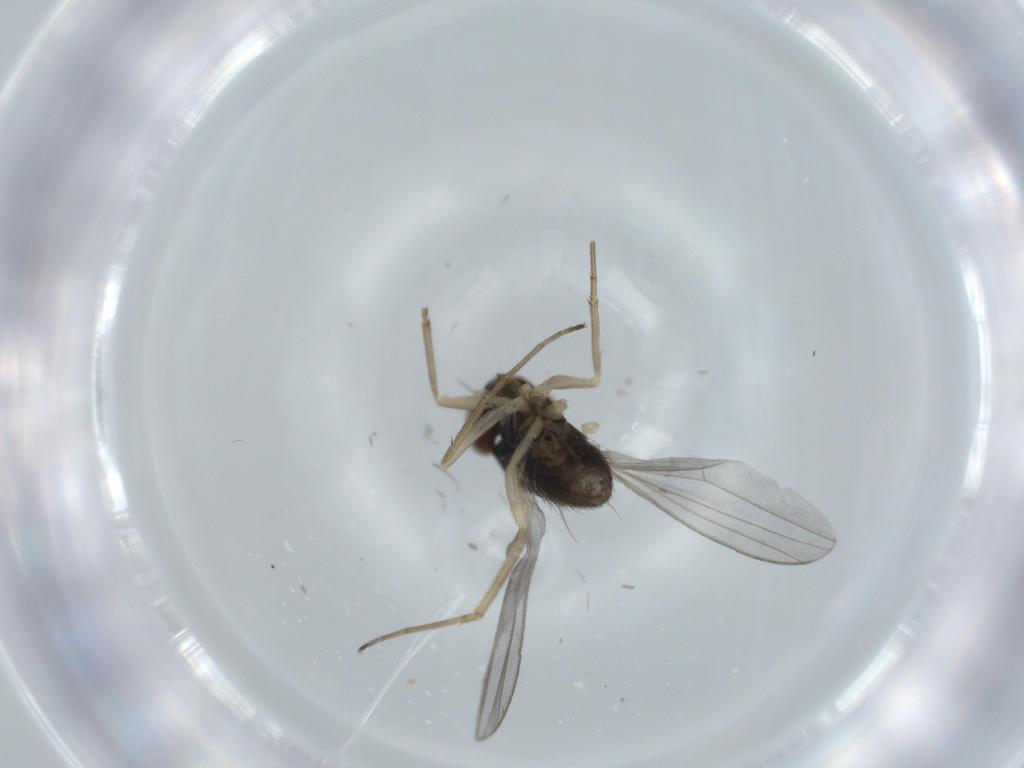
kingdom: Animalia
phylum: Arthropoda
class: Insecta
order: Diptera
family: Dolichopodidae
